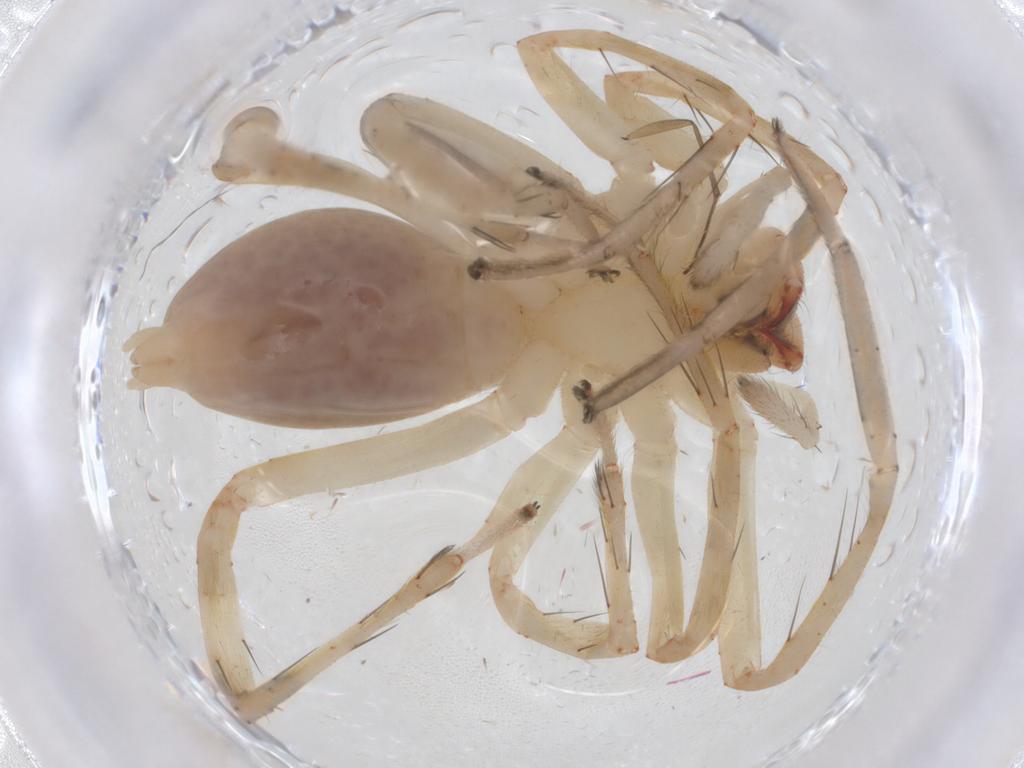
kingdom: Animalia
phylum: Arthropoda
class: Arachnida
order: Araneae
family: Anyphaenidae
